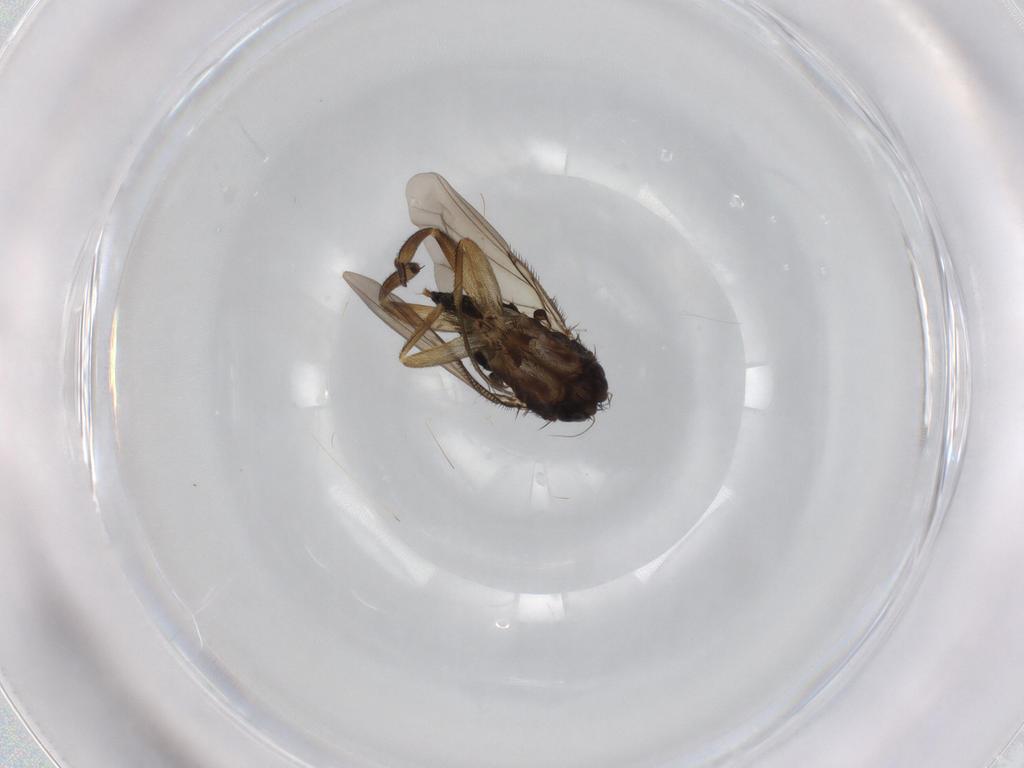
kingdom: Animalia
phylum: Arthropoda
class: Insecta
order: Diptera
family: Phoridae
